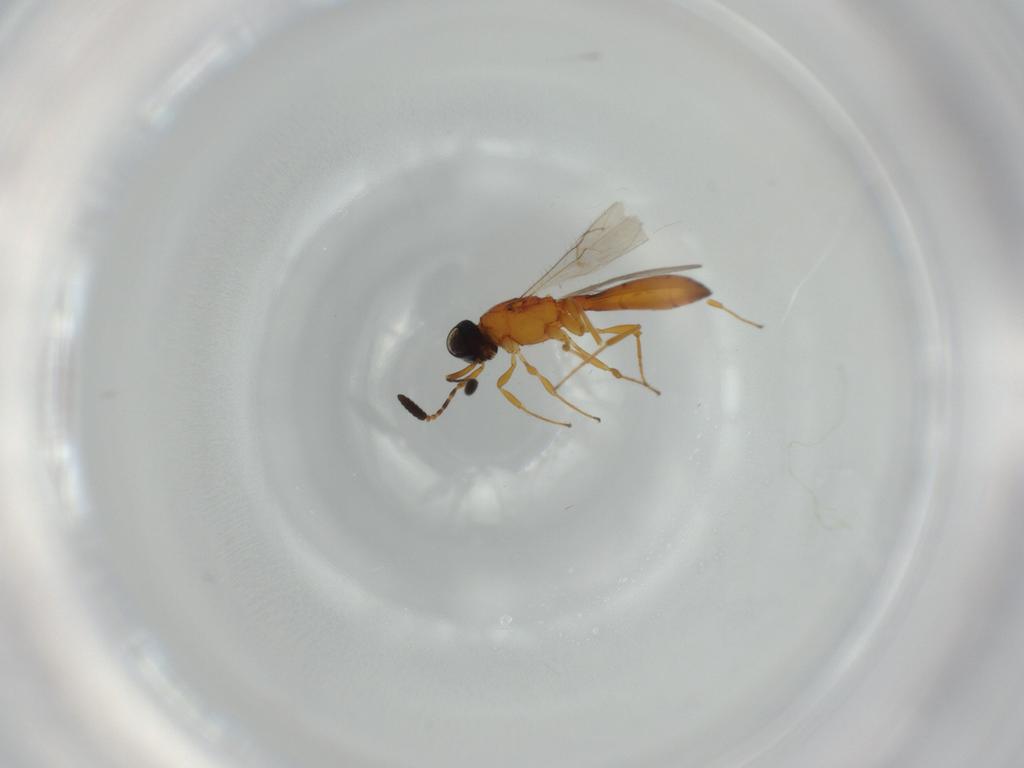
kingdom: Animalia
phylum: Arthropoda
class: Insecta
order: Hymenoptera
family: Scelionidae
